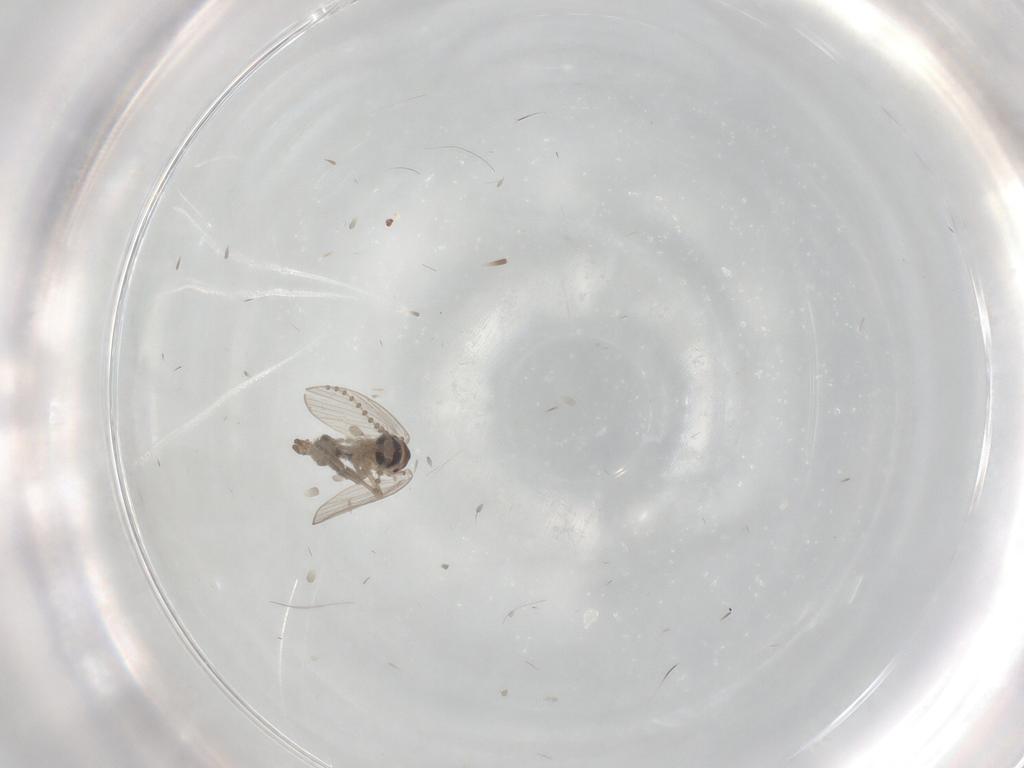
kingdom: Animalia
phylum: Arthropoda
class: Insecta
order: Diptera
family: Psychodidae
